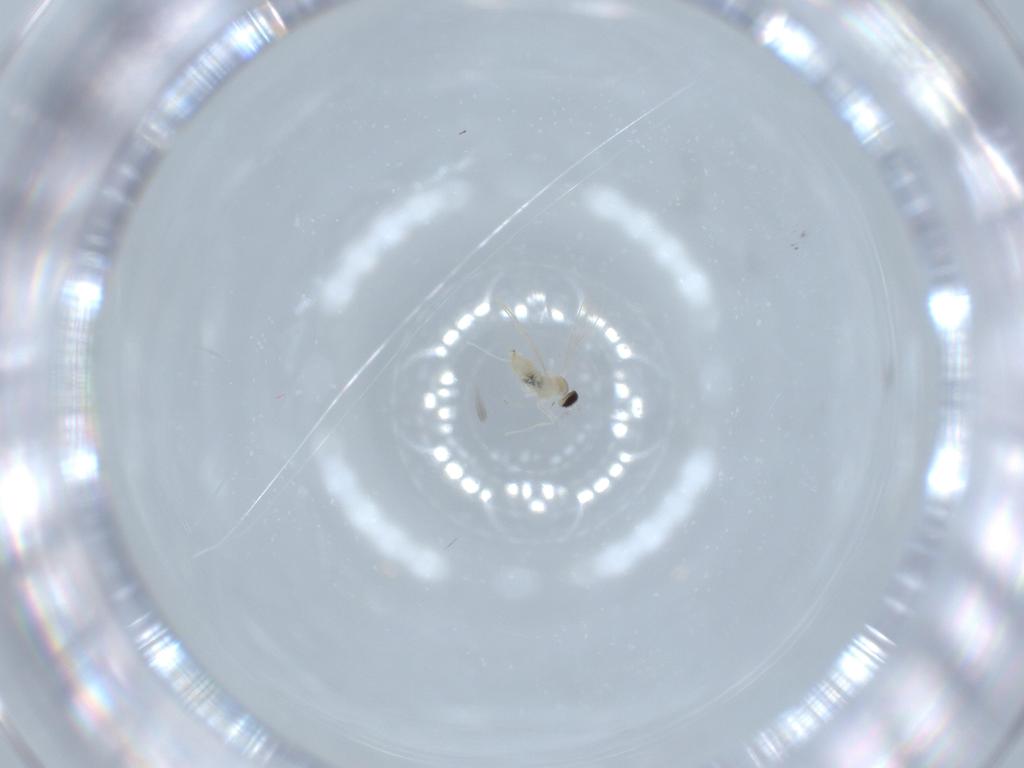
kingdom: Animalia
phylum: Arthropoda
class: Insecta
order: Diptera
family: Cecidomyiidae
